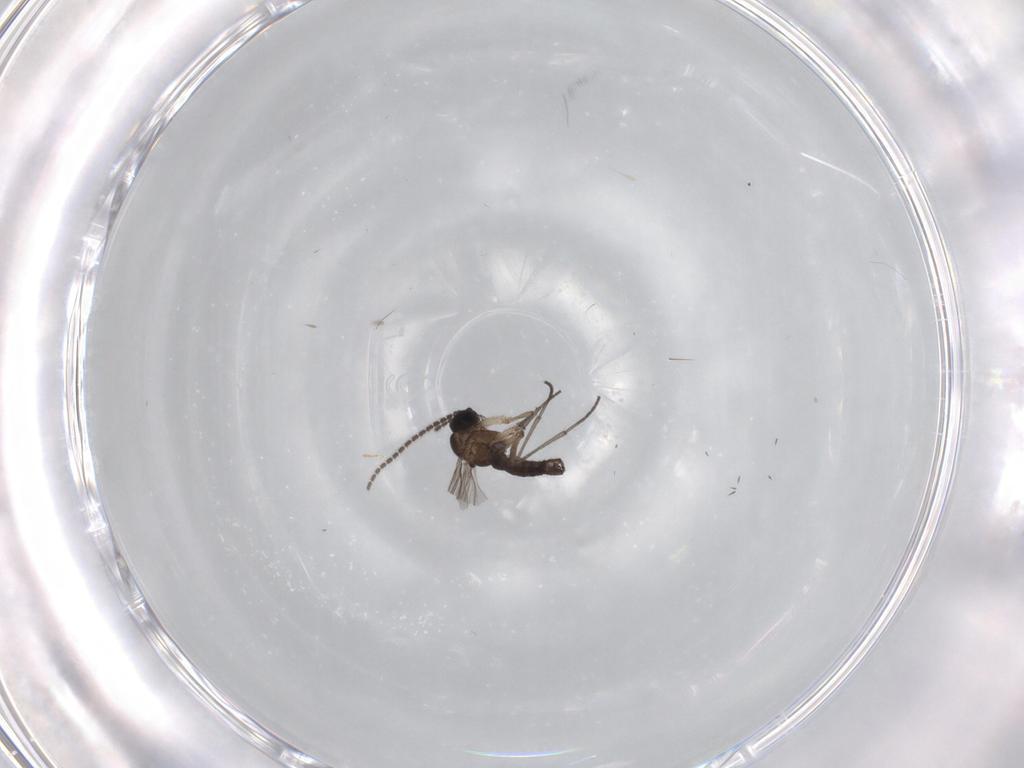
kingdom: Animalia
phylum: Arthropoda
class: Insecta
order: Diptera
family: Sciaridae
